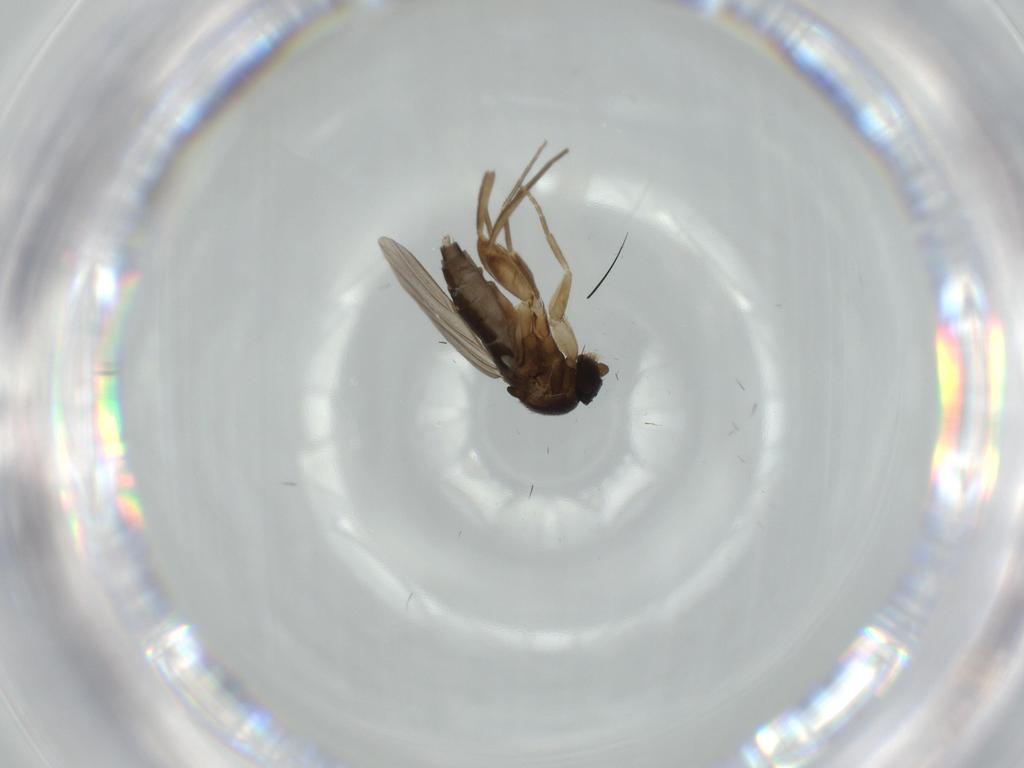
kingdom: Animalia
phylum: Arthropoda
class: Insecta
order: Diptera
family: Phoridae
